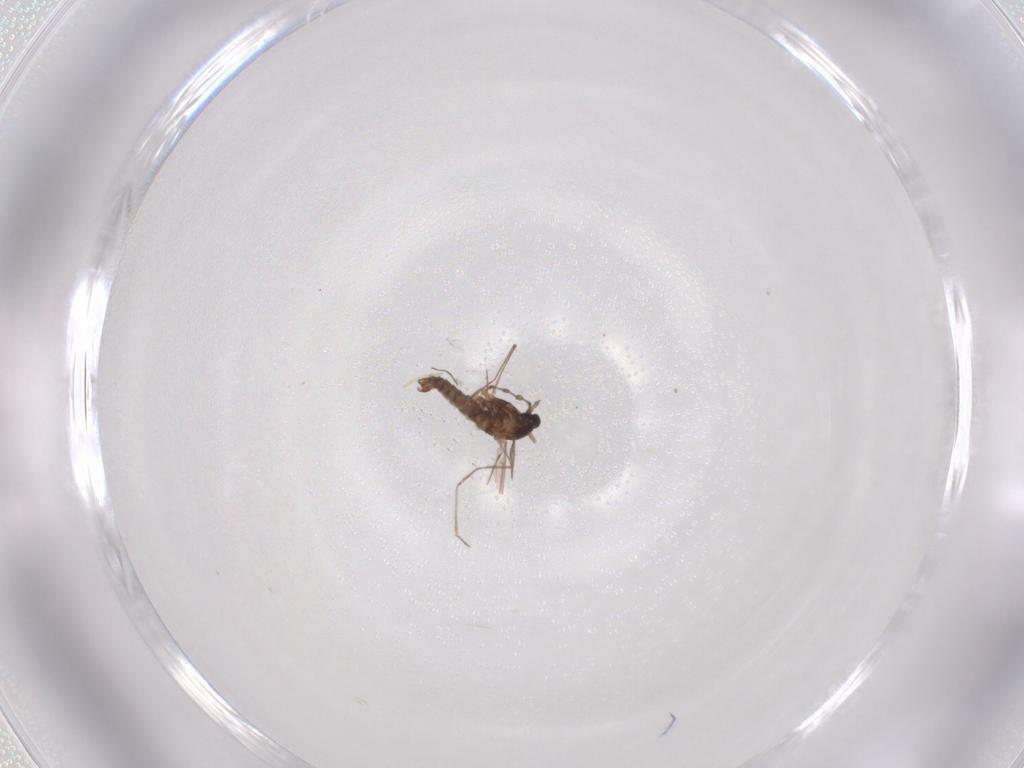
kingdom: Animalia
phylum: Arthropoda
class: Insecta
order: Diptera
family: Cecidomyiidae
